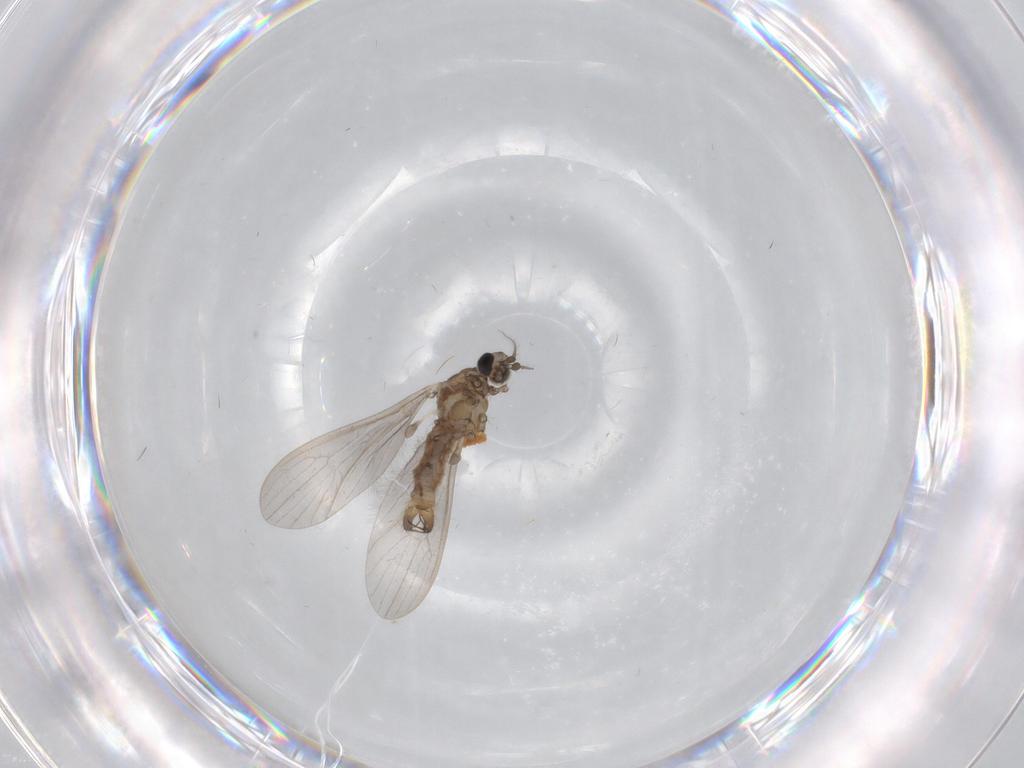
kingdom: Animalia
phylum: Arthropoda
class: Insecta
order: Diptera
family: Limoniidae
